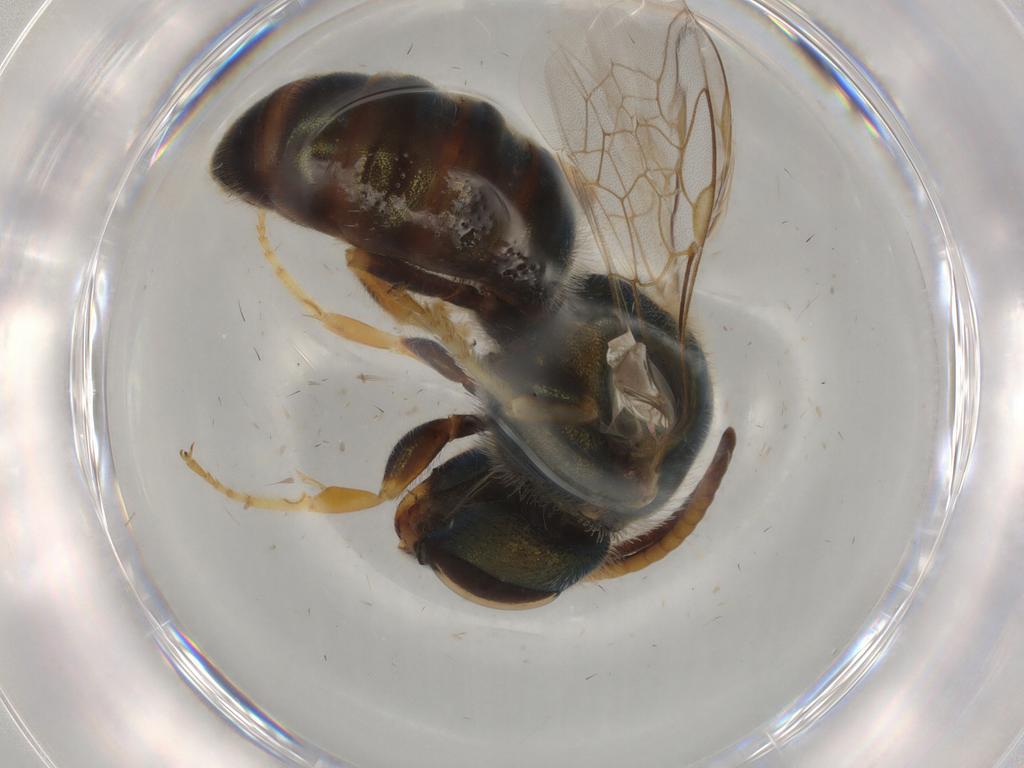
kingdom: Animalia
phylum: Arthropoda
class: Insecta
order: Hymenoptera
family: Halictidae
